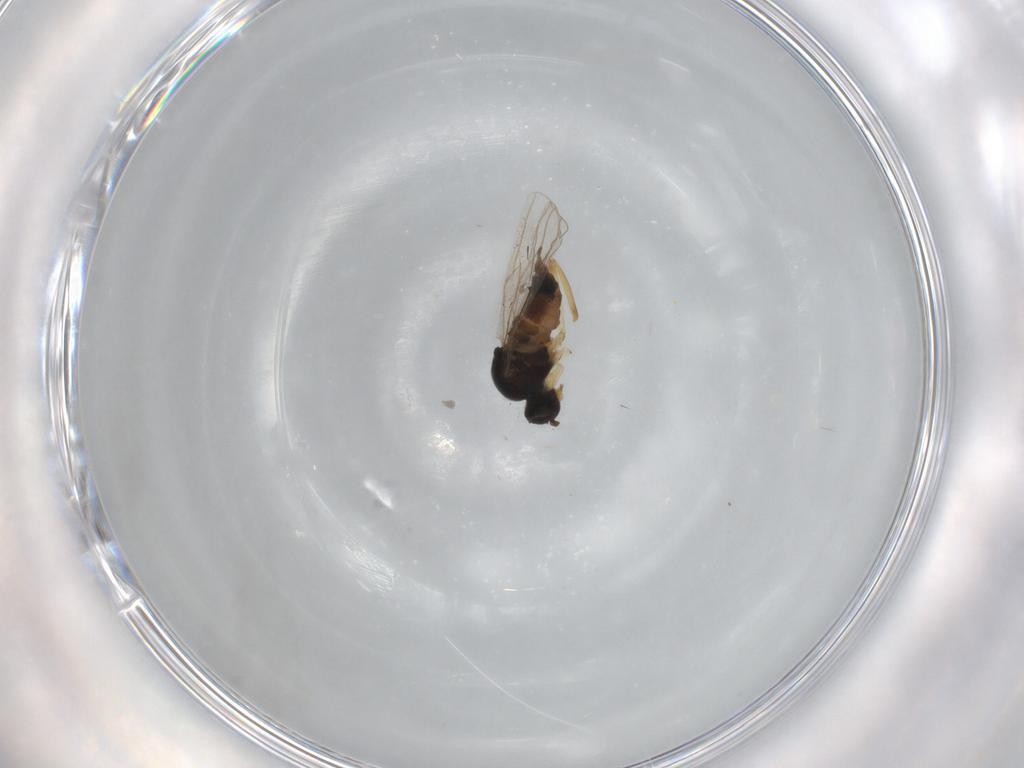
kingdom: Animalia
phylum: Arthropoda
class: Insecta
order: Diptera
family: Hybotidae
